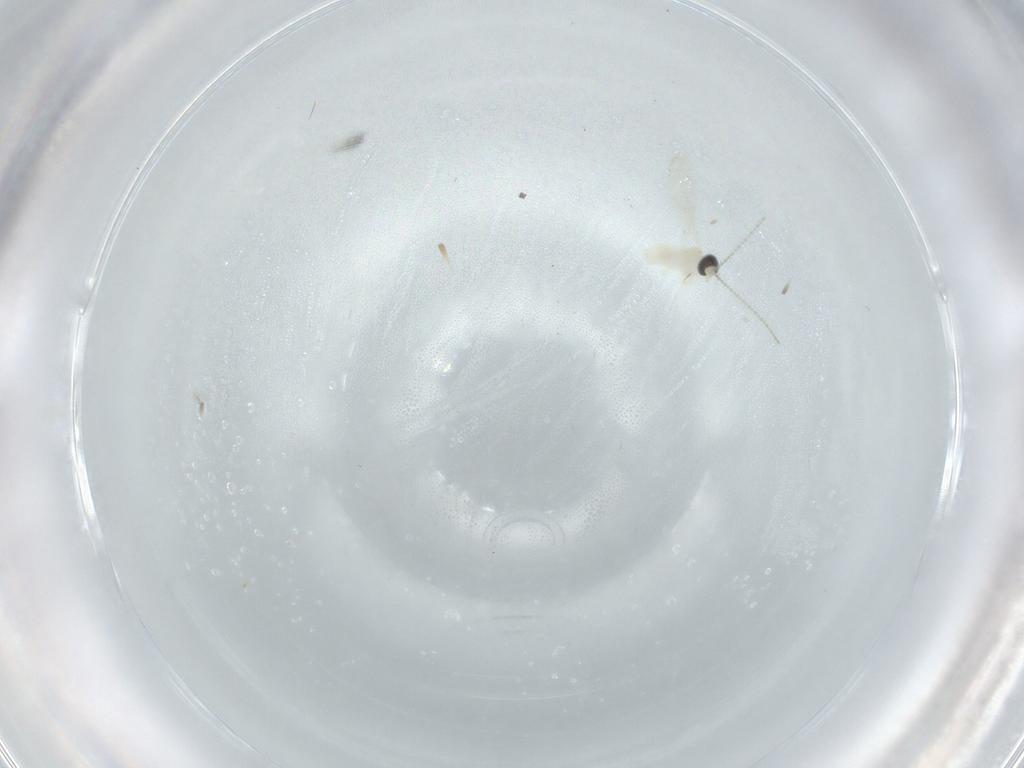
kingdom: Animalia
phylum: Arthropoda
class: Insecta
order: Diptera
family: Cecidomyiidae
